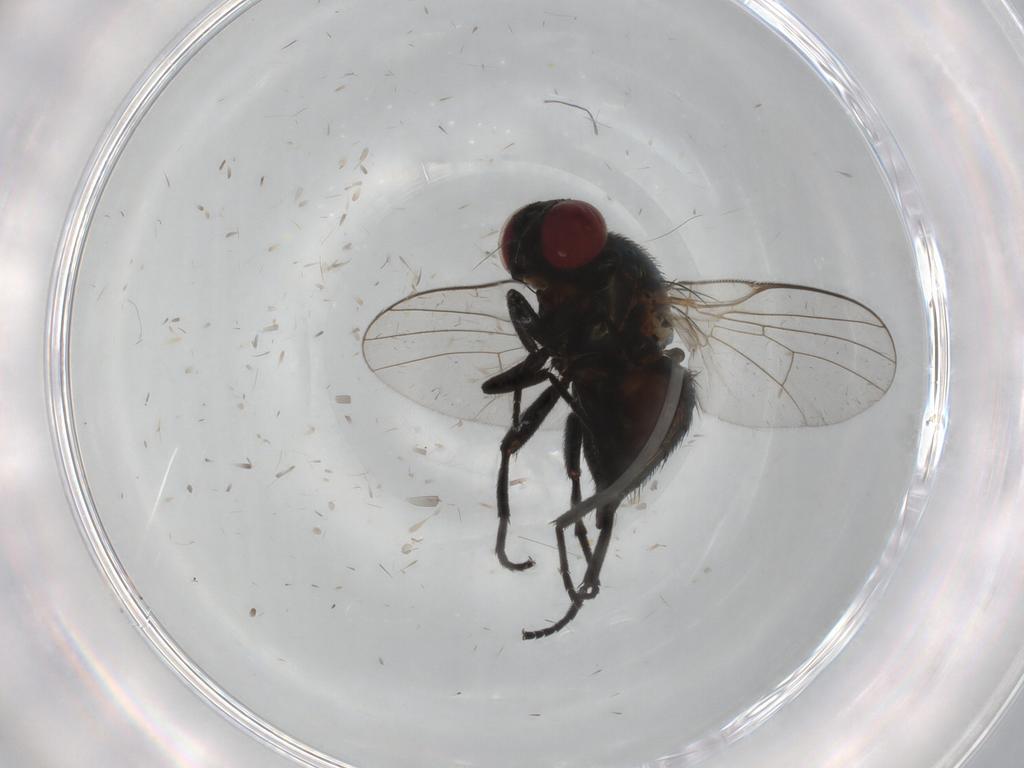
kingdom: Animalia
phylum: Arthropoda
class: Insecta
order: Diptera
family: Agromyzidae
